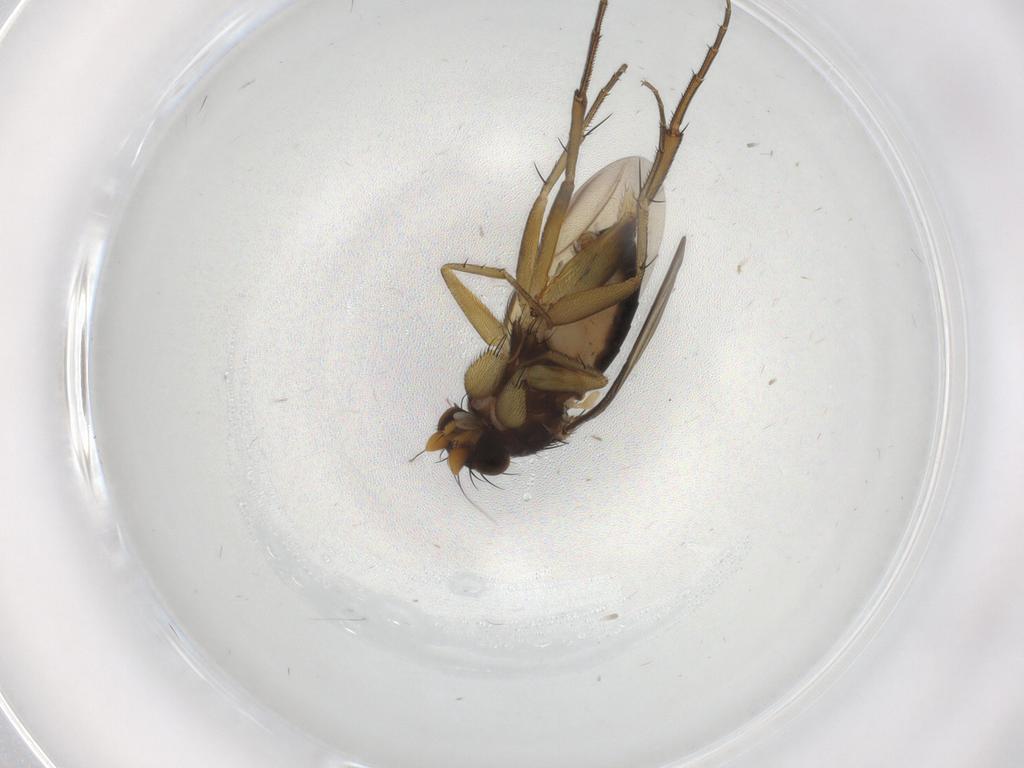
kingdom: Animalia
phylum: Arthropoda
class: Insecta
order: Diptera
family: Phoridae
